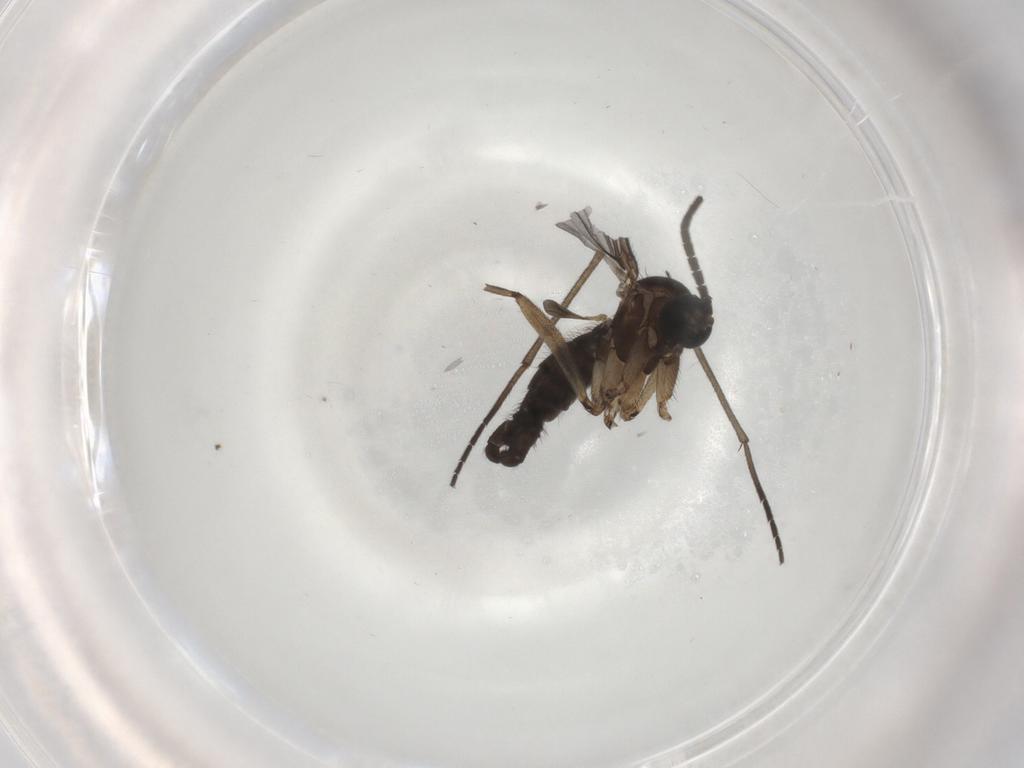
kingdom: Animalia
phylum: Arthropoda
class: Insecta
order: Diptera
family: Sciaridae
